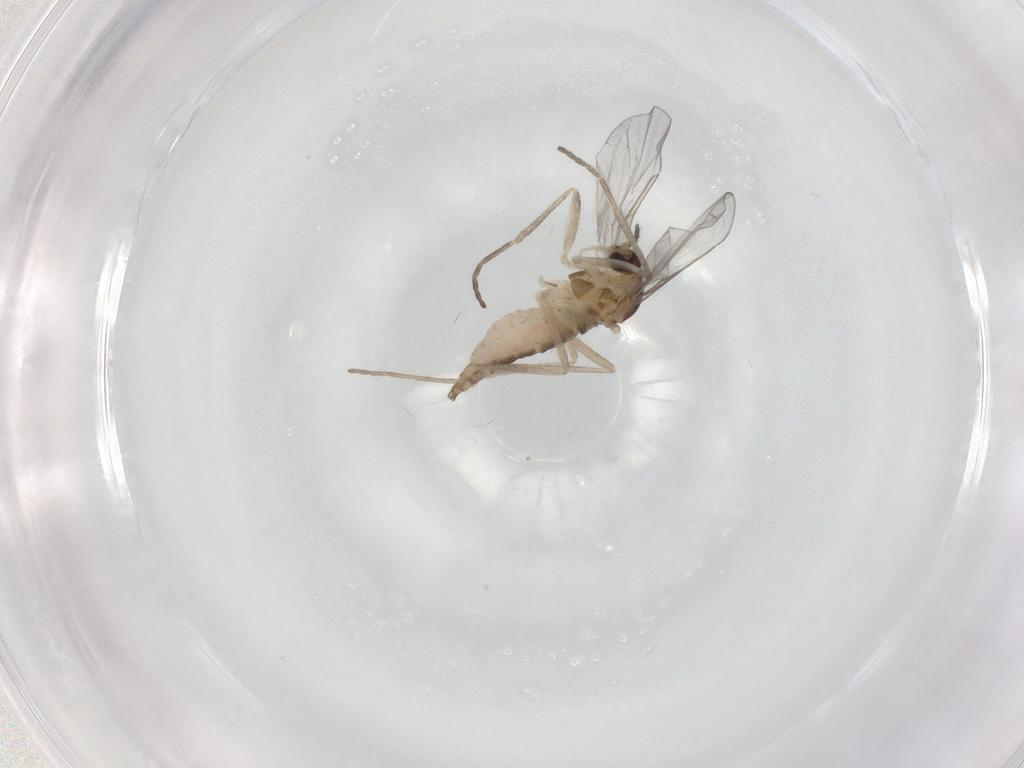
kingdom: Animalia
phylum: Arthropoda
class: Insecta
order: Diptera
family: Cecidomyiidae
